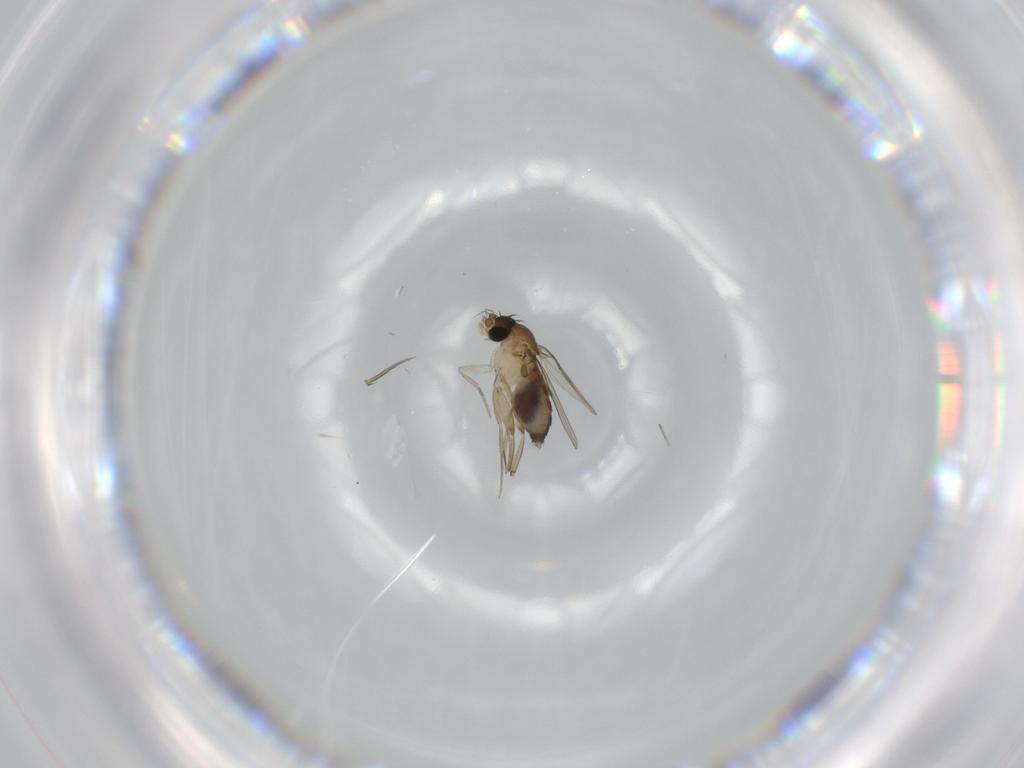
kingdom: Animalia
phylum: Arthropoda
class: Insecta
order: Diptera
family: Phoridae
